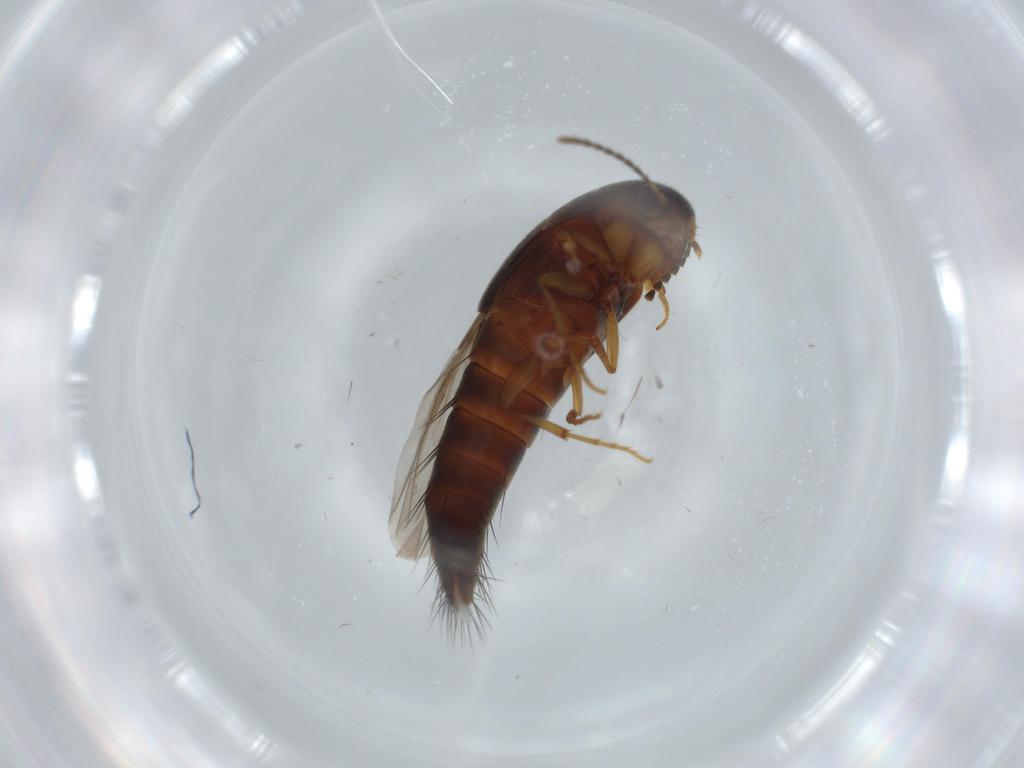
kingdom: Animalia
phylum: Arthropoda
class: Insecta
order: Coleoptera
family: Staphylinidae
